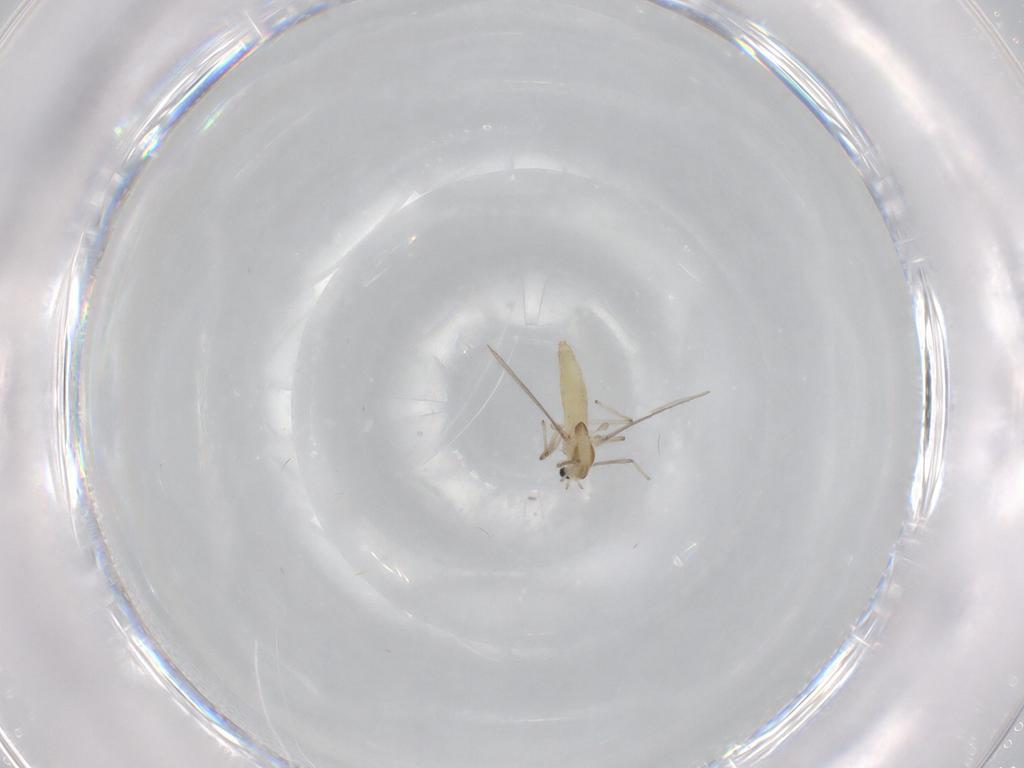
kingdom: Animalia
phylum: Arthropoda
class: Insecta
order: Diptera
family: Chironomidae
